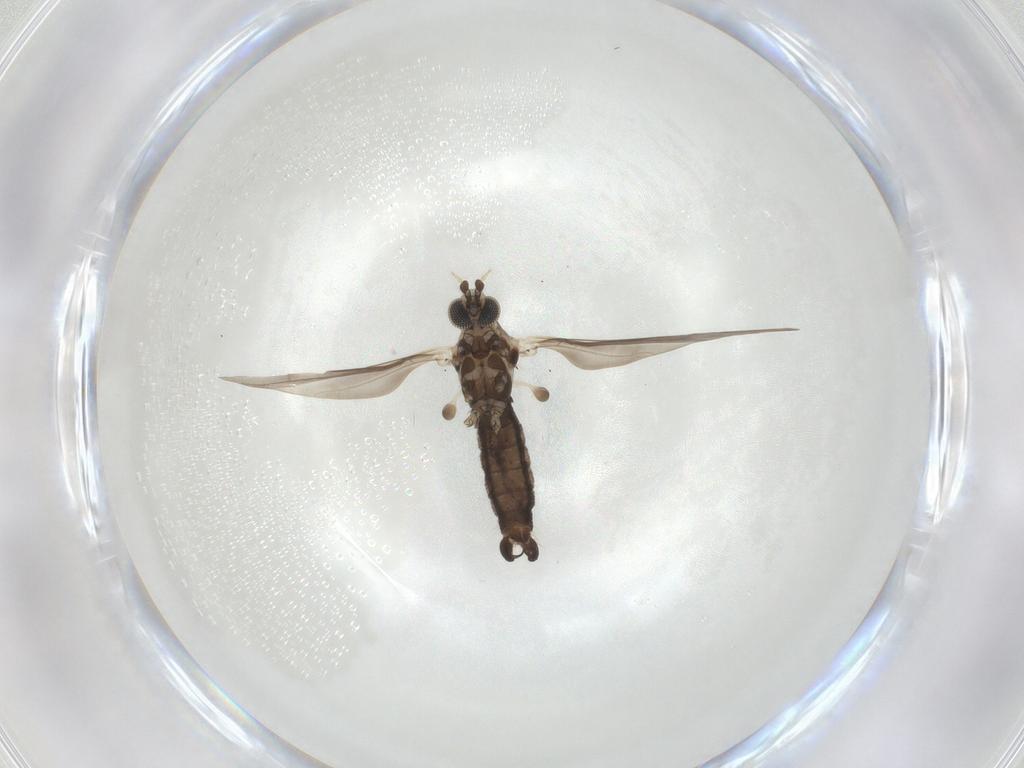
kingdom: Animalia
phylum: Arthropoda
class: Insecta
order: Diptera
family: Limoniidae
